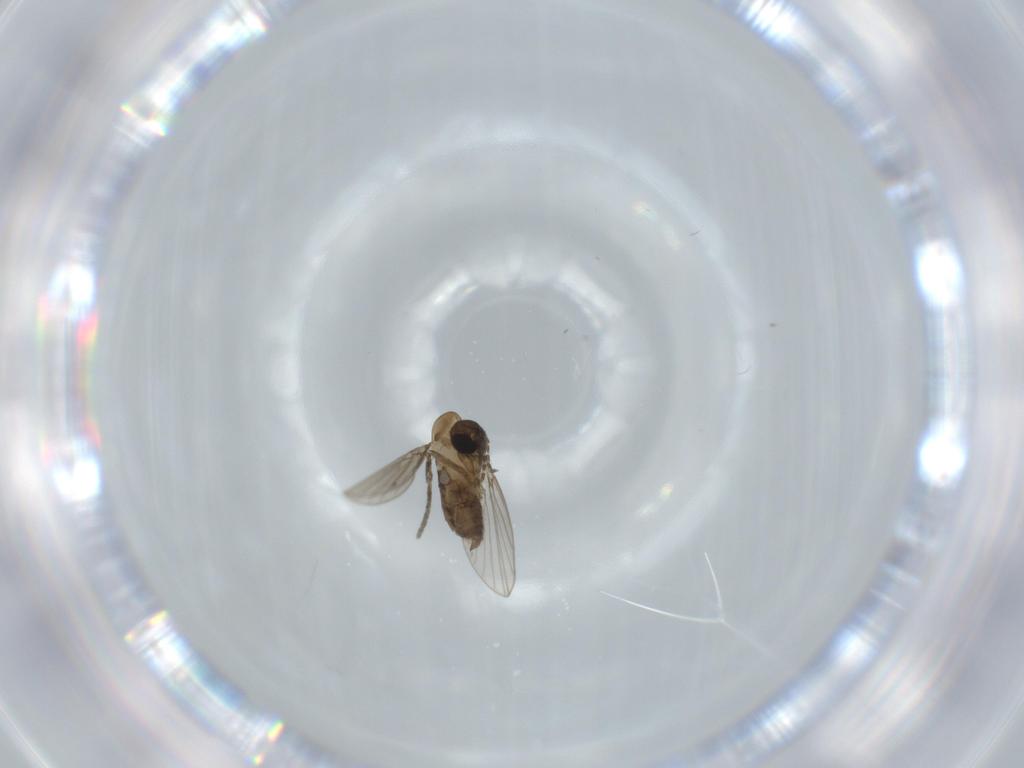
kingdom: Animalia
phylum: Arthropoda
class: Insecta
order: Diptera
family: Psychodidae
